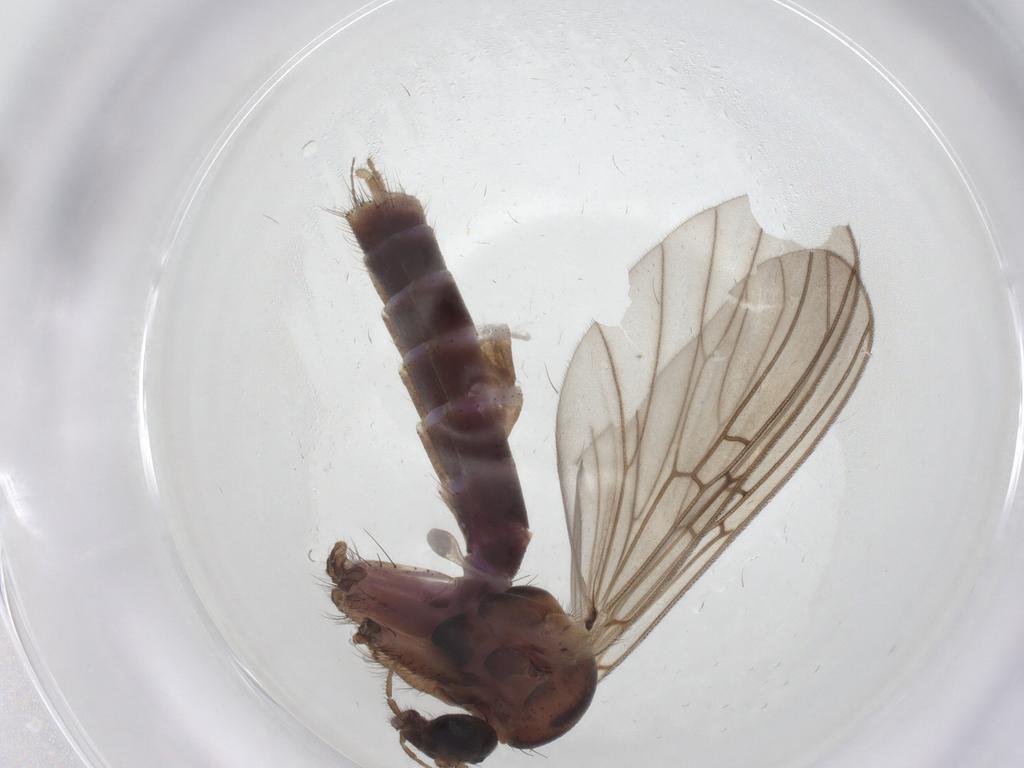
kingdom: Animalia
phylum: Arthropoda
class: Insecta
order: Diptera
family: Mycetophilidae
